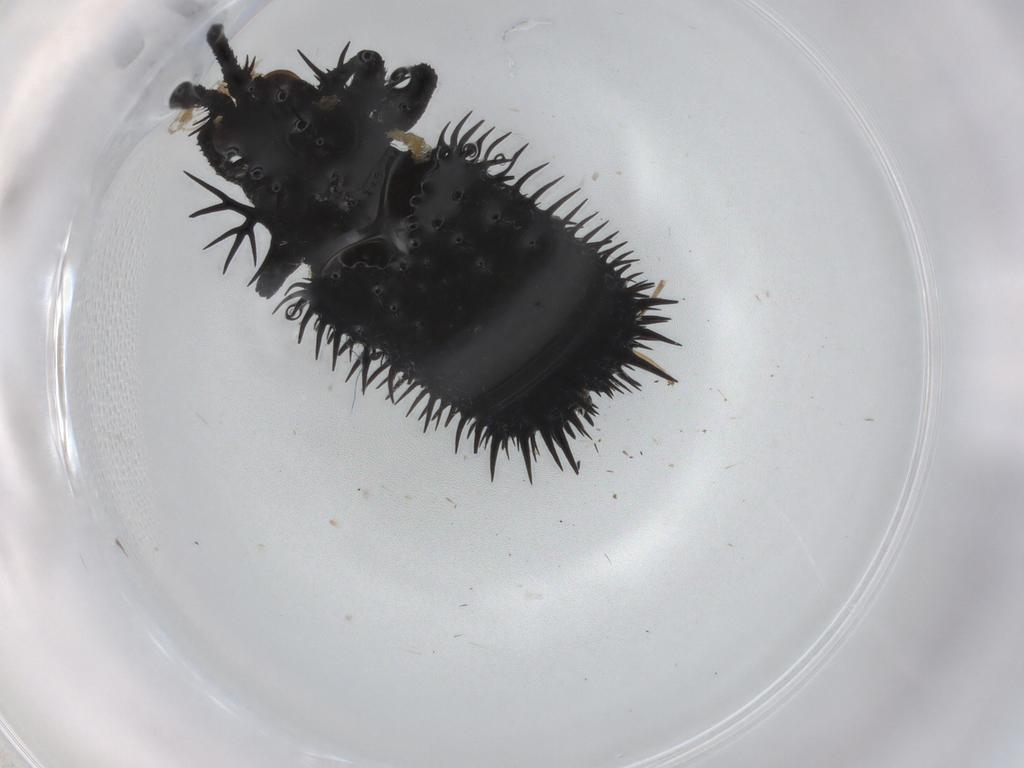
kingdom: Animalia
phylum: Arthropoda
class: Insecta
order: Coleoptera
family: Chrysomelidae
